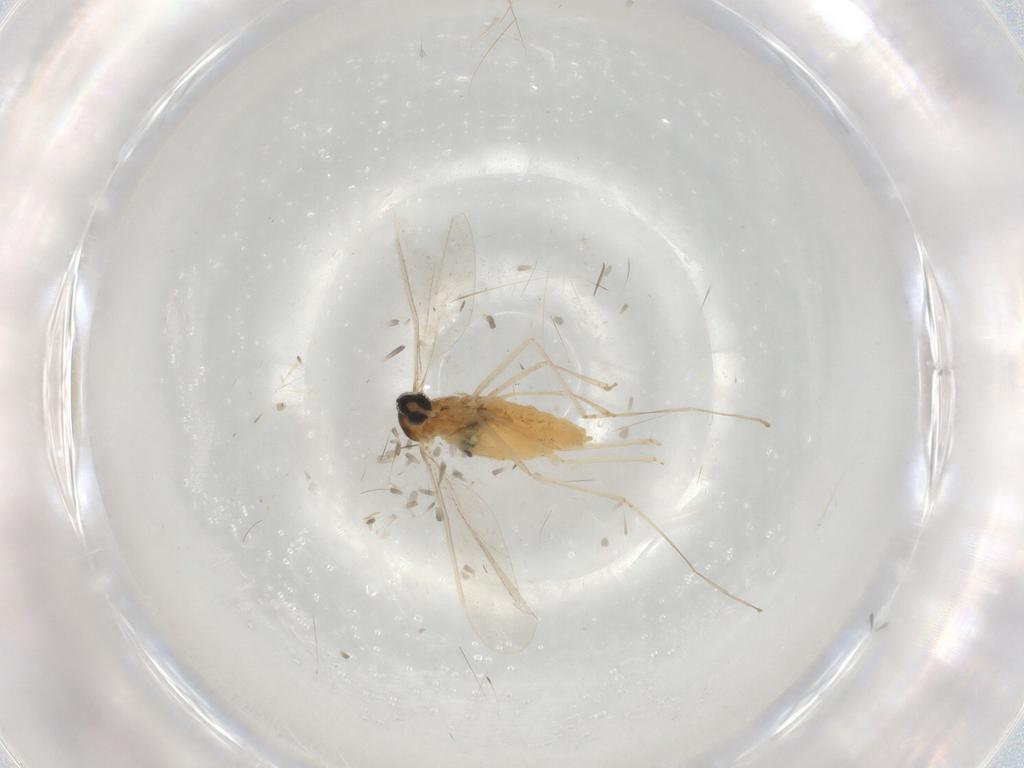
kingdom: Animalia
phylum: Arthropoda
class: Insecta
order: Diptera
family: Cecidomyiidae
